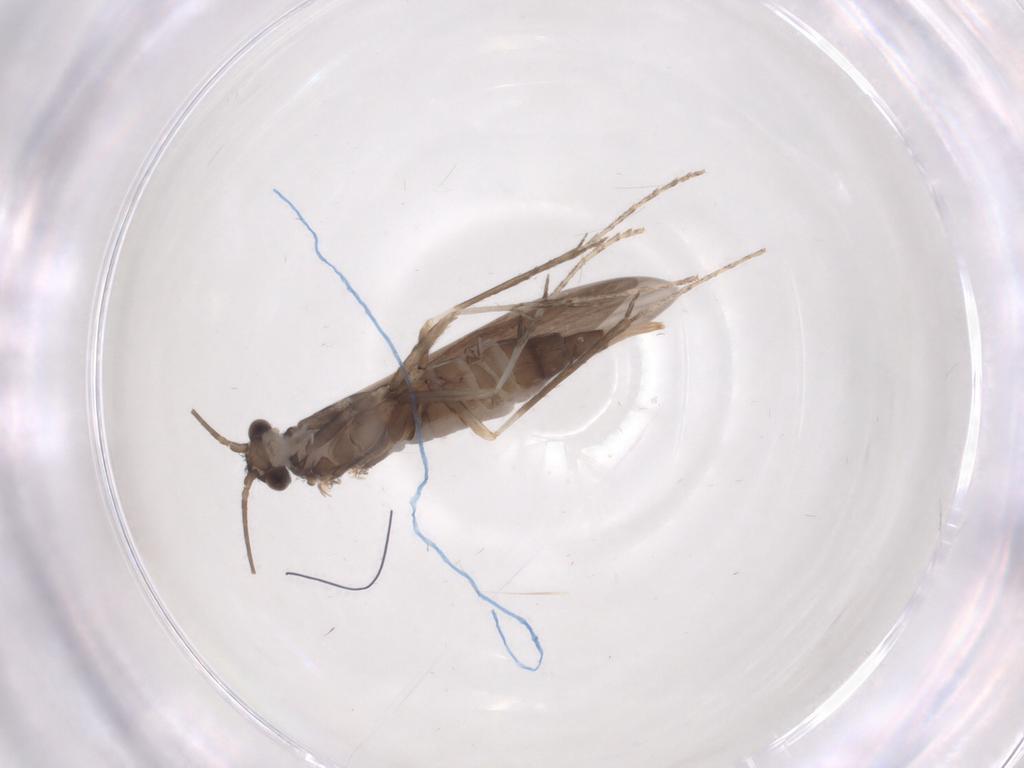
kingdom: Animalia
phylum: Arthropoda
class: Insecta
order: Trichoptera
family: Xiphocentronidae
